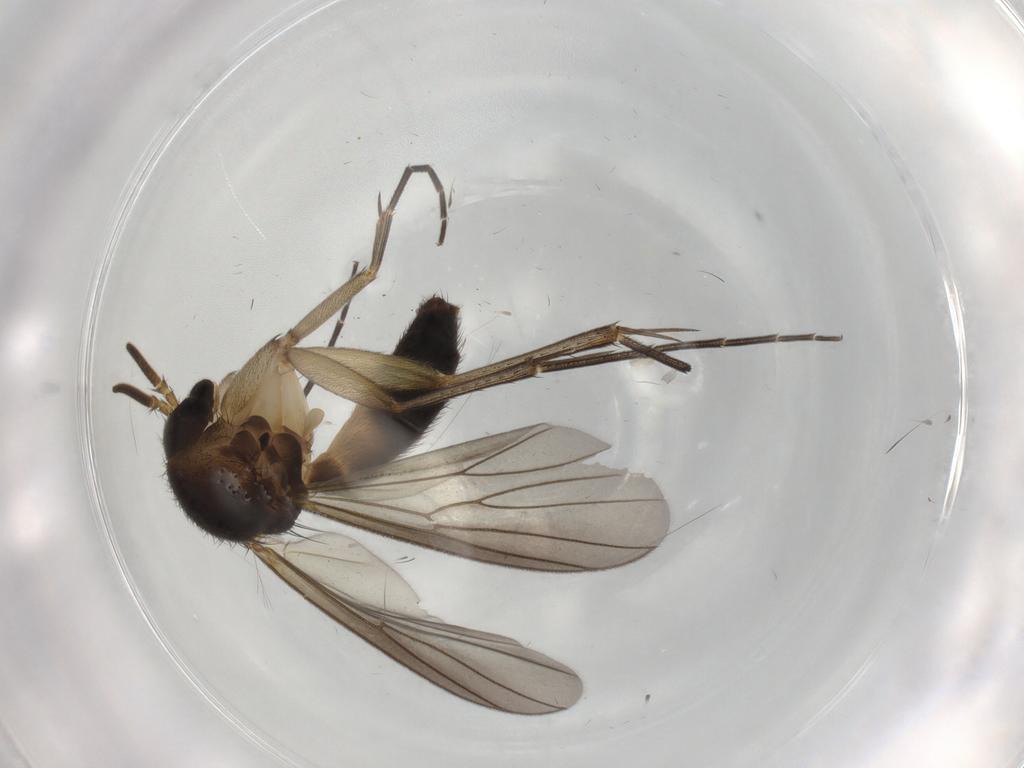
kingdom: Animalia
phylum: Arthropoda
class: Insecta
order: Diptera
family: Mycetophilidae
